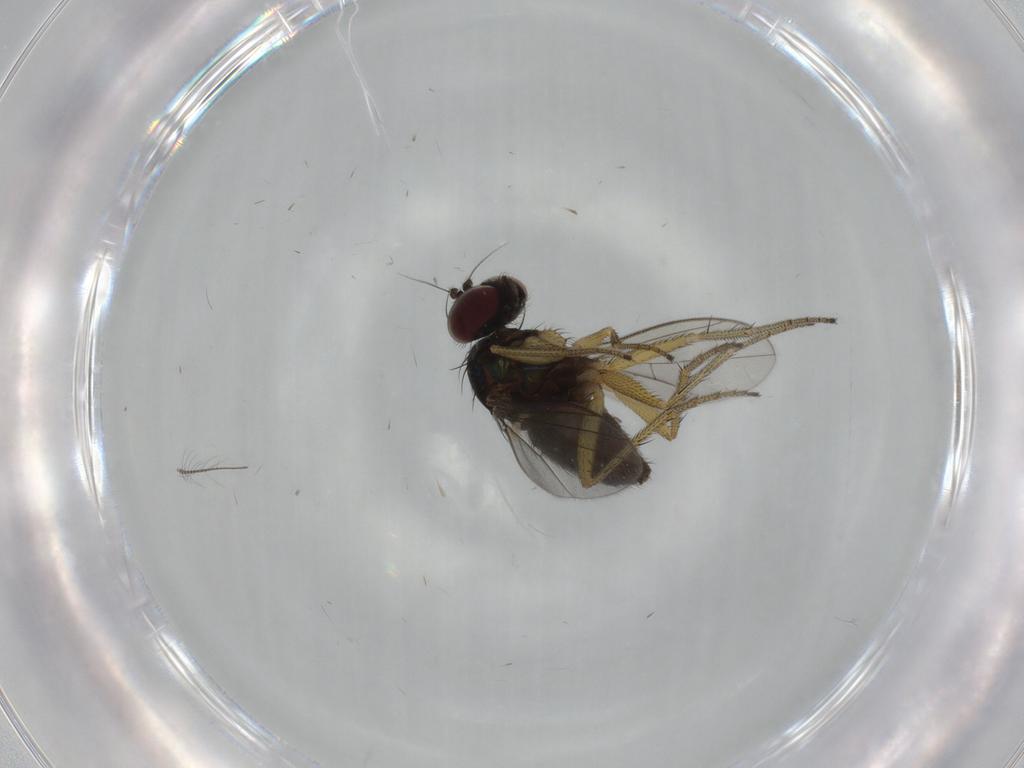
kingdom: Animalia
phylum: Arthropoda
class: Insecta
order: Diptera
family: Dolichopodidae
